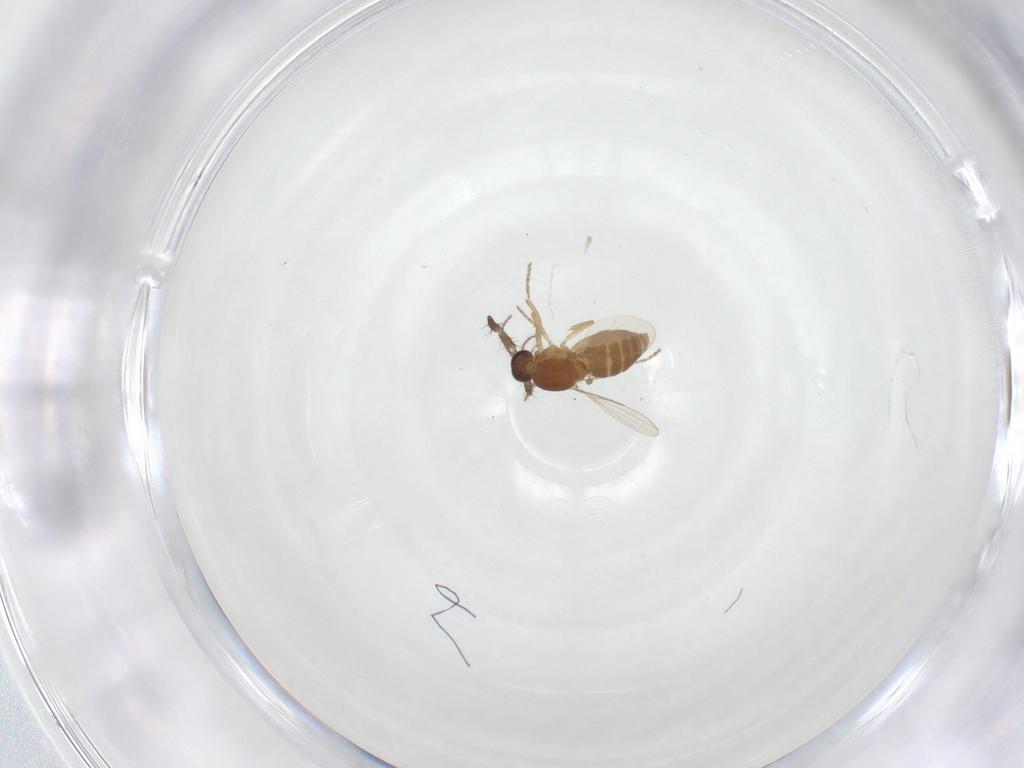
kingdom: Animalia
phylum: Arthropoda
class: Insecta
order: Diptera
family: Ceratopogonidae
